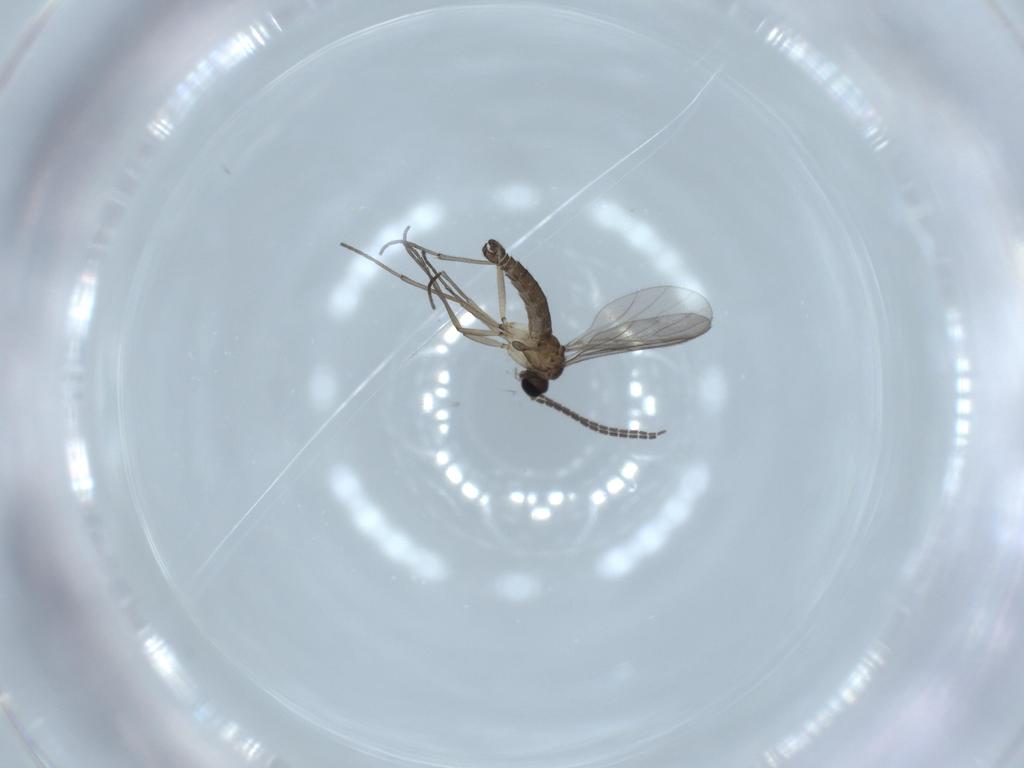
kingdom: Animalia
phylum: Arthropoda
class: Insecta
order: Diptera
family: Sciaridae
